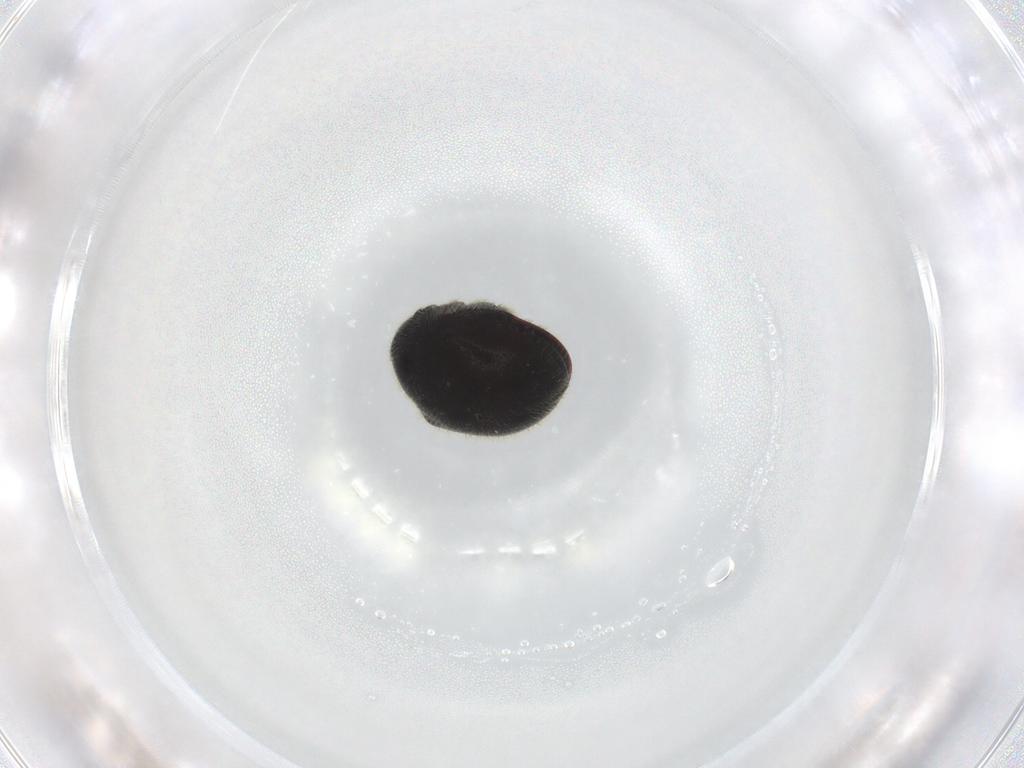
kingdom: Animalia
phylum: Arthropoda
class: Insecta
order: Coleoptera
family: Ptinidae
